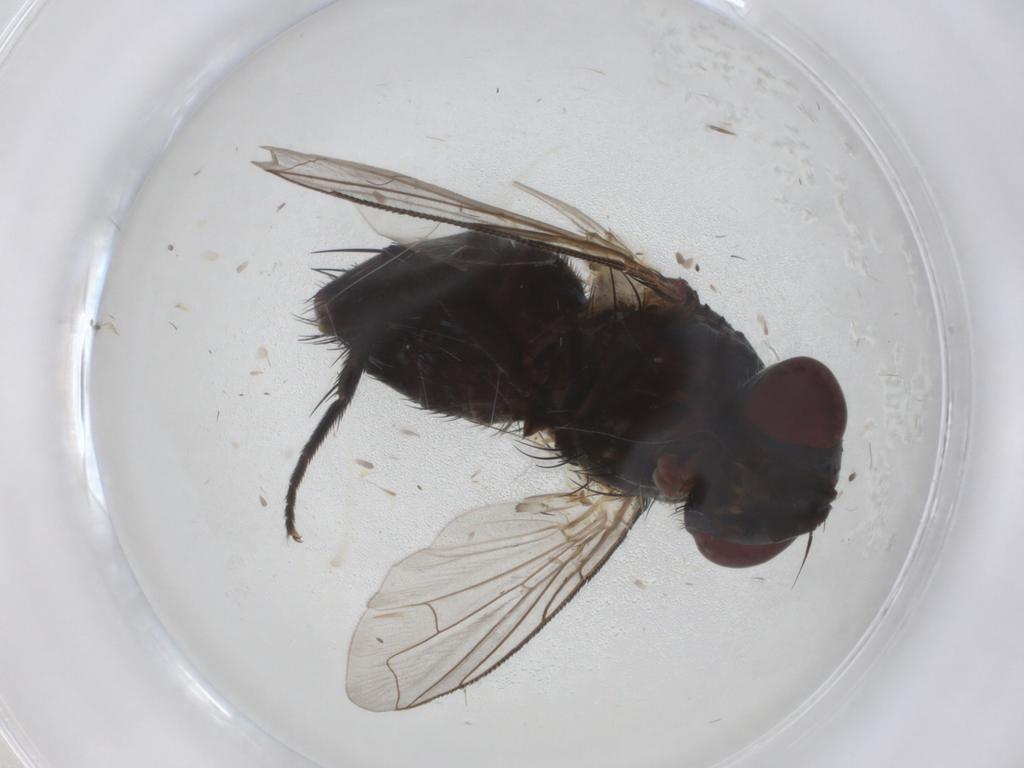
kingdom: Animalia
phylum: Arthropoda
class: Insecta
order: Diptera
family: Tachinidae
